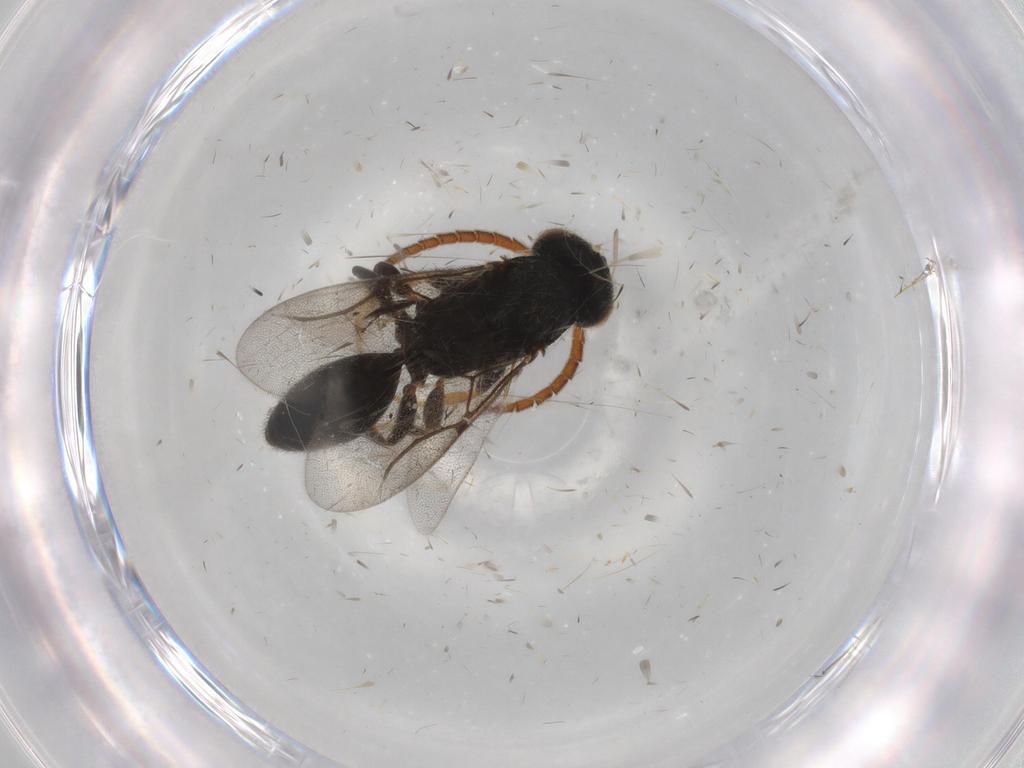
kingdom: Animalia
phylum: Arthropoda
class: Insecta
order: Hymenoptera
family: Bethylidae
